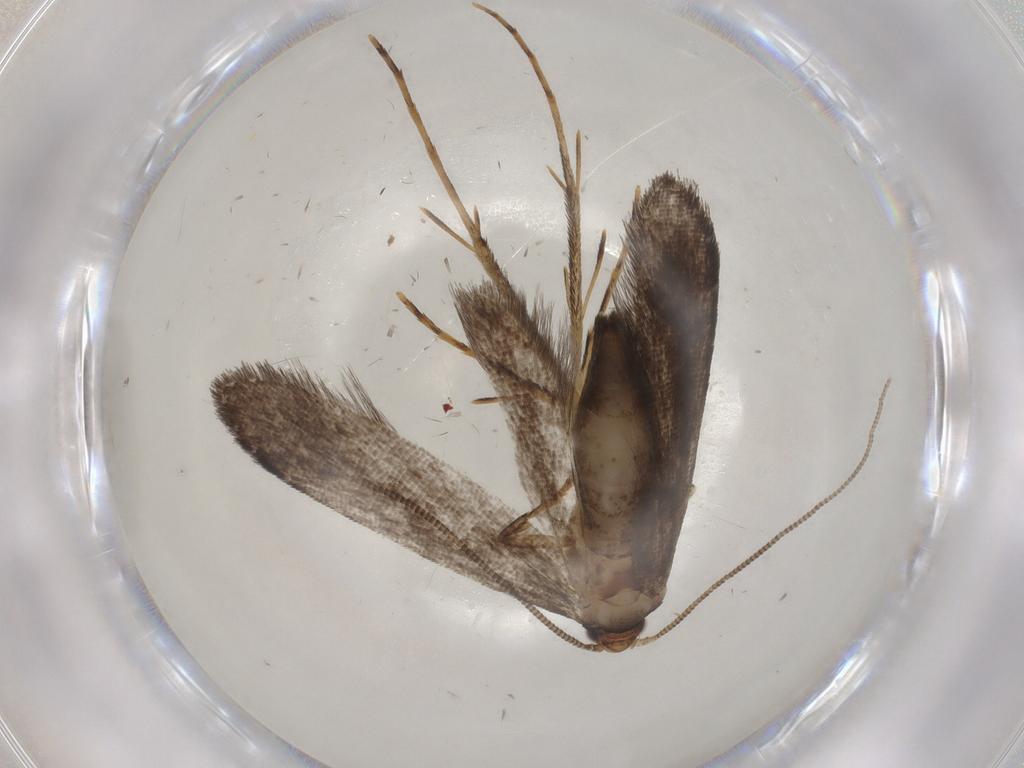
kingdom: Animalia
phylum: Arthropoda
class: Insecta
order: Lepidoptera
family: Tineidae
